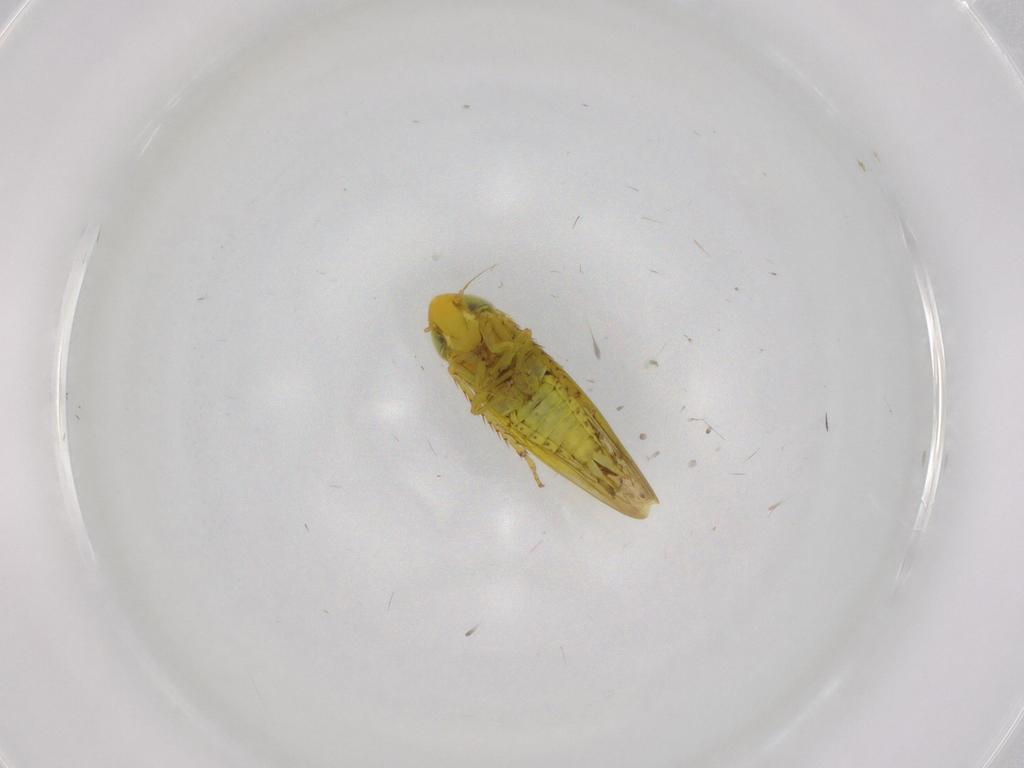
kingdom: Animalia
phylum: Arthropoda
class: Insecta
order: Hemiptera
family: Cicadellidae
